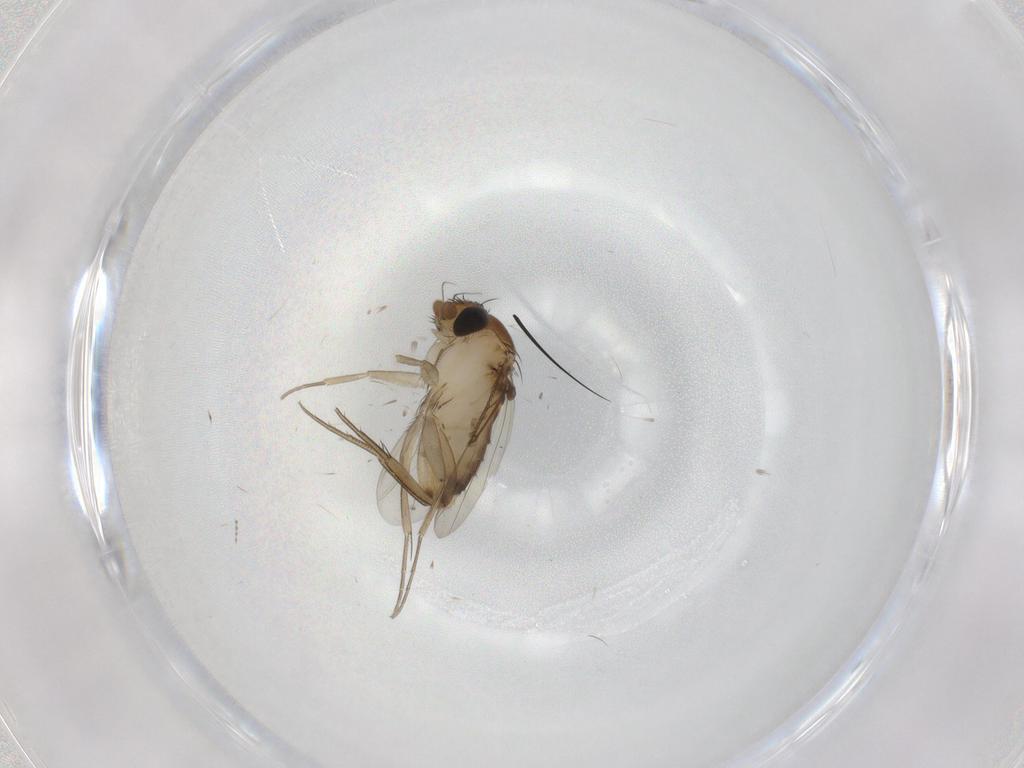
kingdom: Animalia
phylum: Arthropoda
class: Insecta
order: Diptera
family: Phoridae
